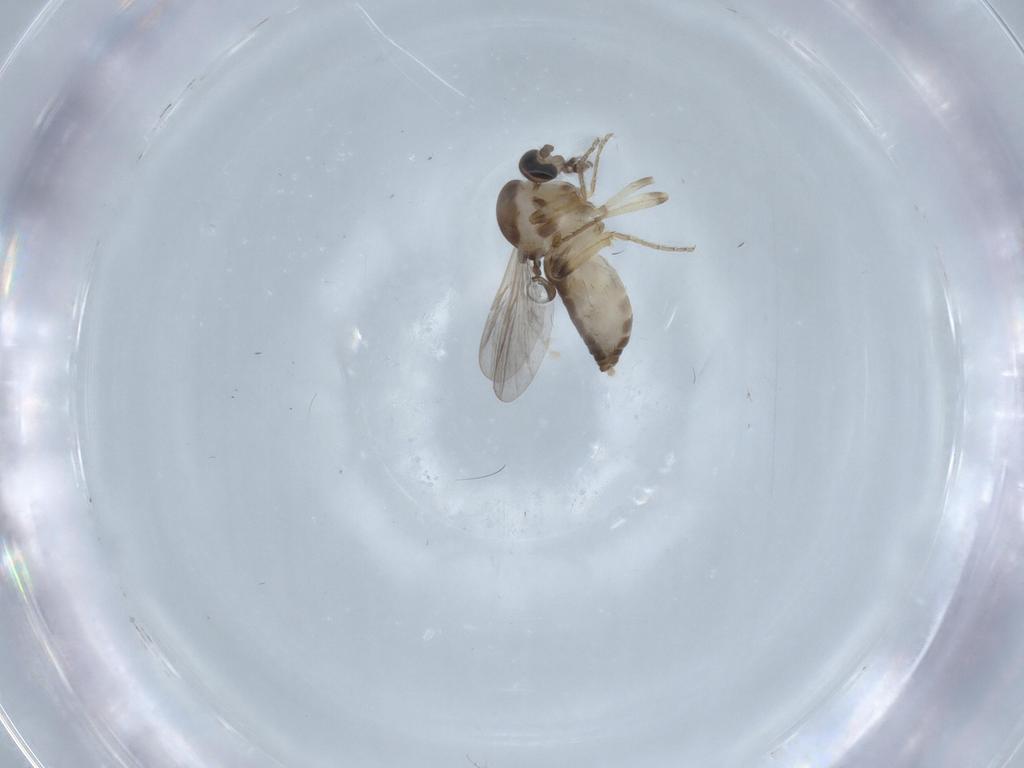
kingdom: Animalia
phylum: Arthropoda
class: Insecta
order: Diptera
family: Ceratopogonidae
